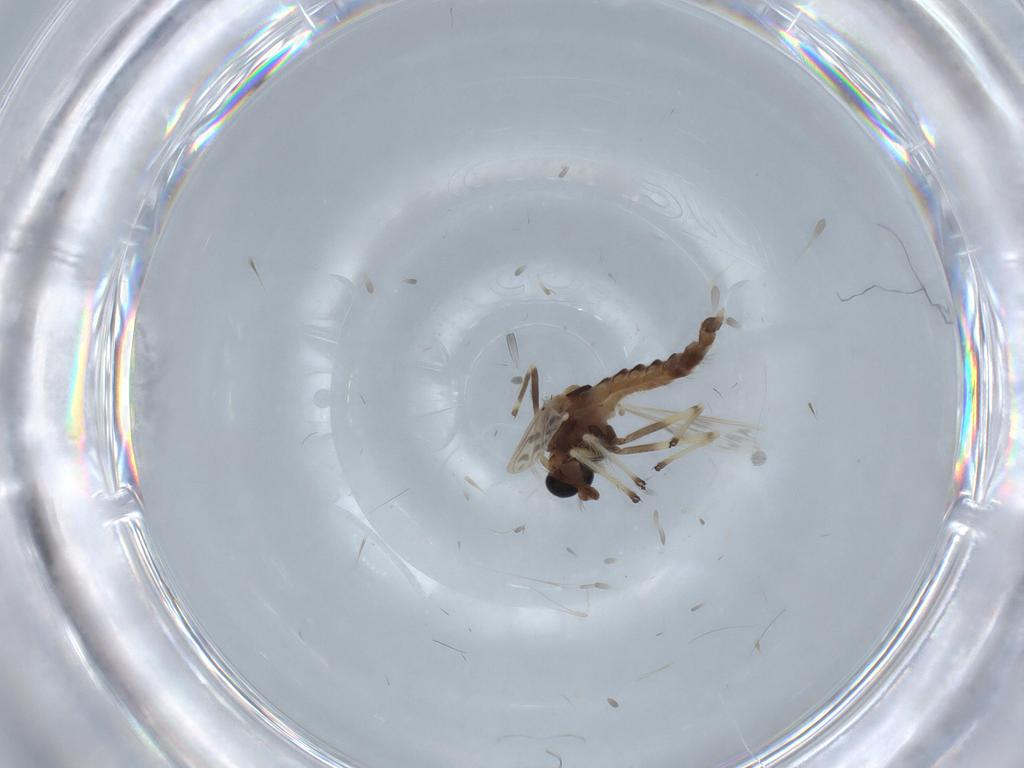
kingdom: Animalia
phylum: Arthropoda
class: Insecta
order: Diptera
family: Chironomidae
